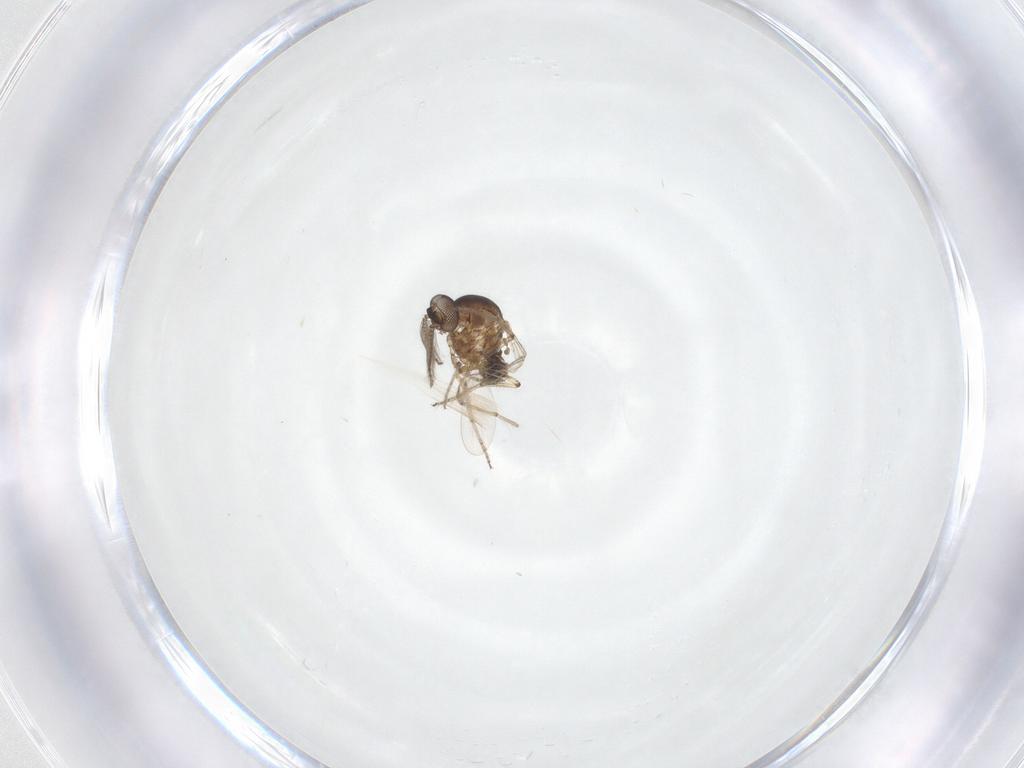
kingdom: Animalia
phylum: Arthropoda
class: Insecta
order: Diptera
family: Ceratopogonidae
